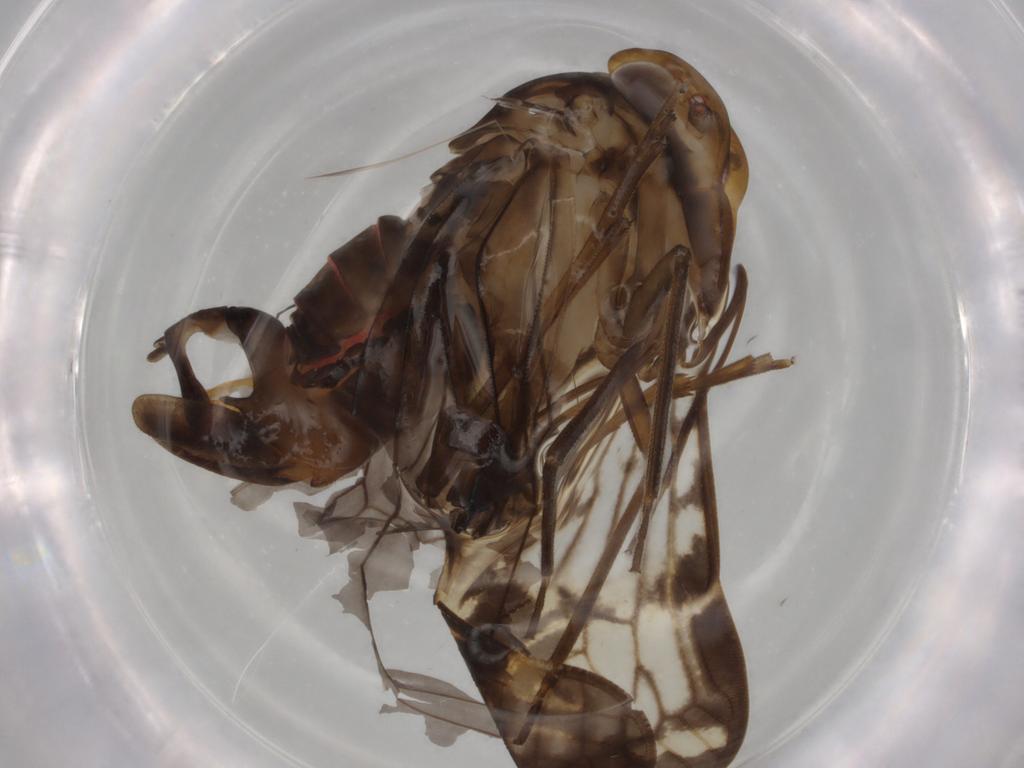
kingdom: Animalia
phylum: Arthropoda
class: Insecta
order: Hemiptera
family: Cixiidae
